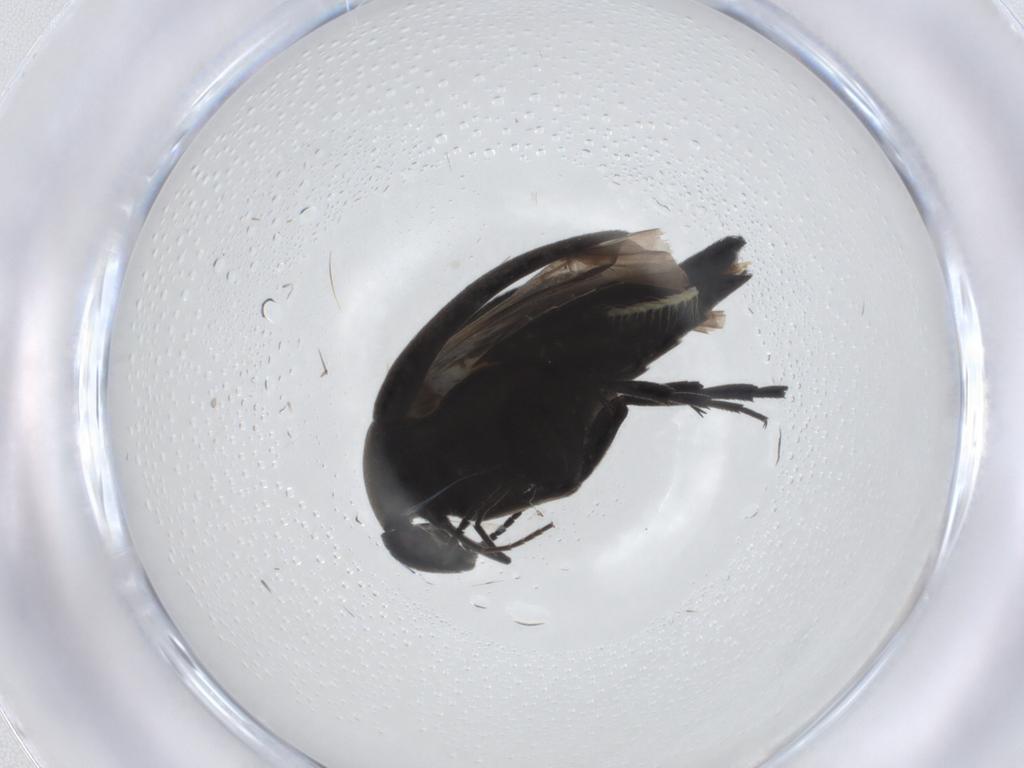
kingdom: Animalia
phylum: Arthropoda
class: Insecta
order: Coleoptera
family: Mordellidae
